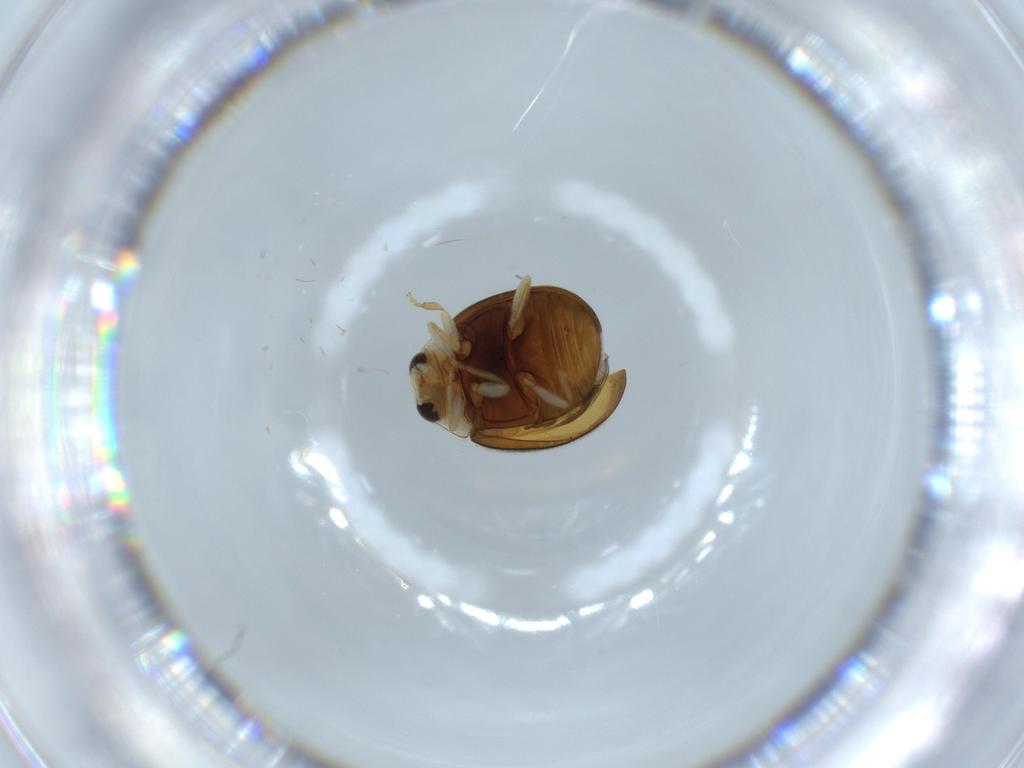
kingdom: Animalia
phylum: Arthropoda
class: Insecta
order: Coleoptera
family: Coccinellidae
